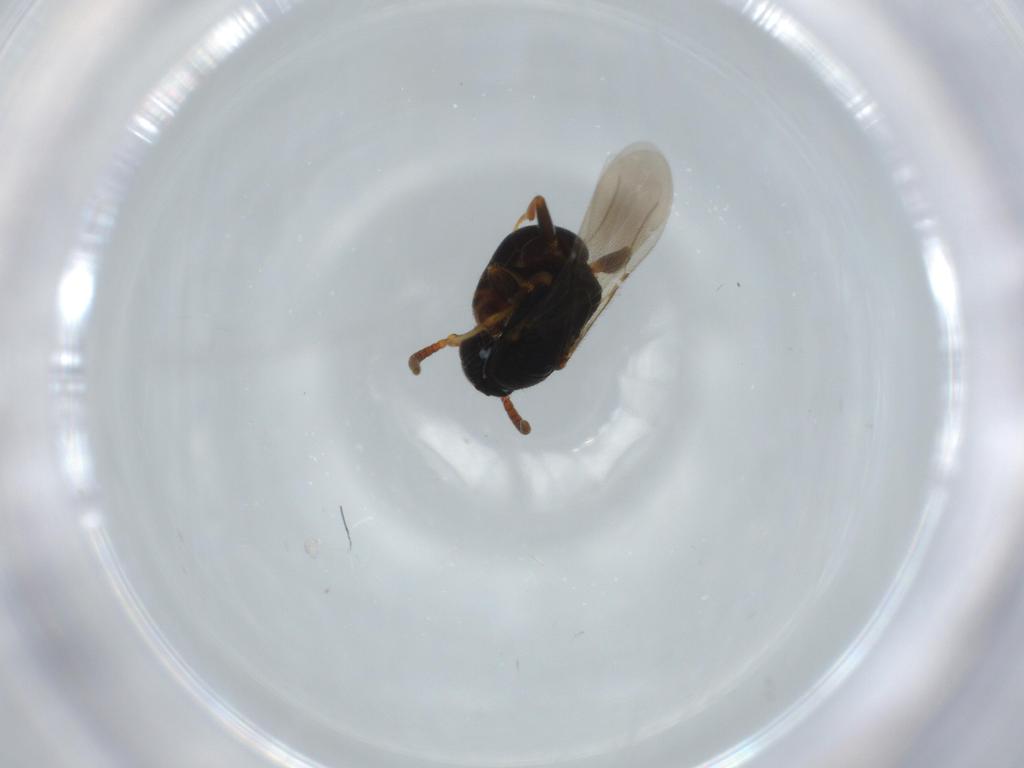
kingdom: Animalia
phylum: Arthropoda
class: Insecta
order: Hymenoptera
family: Bethylidae
